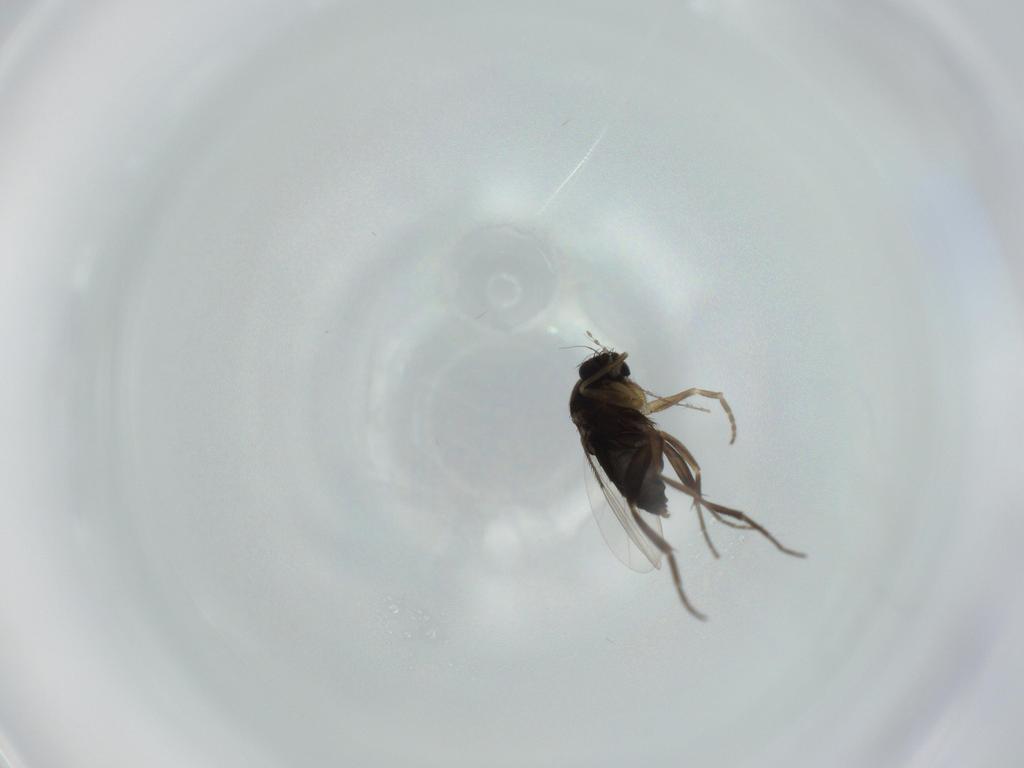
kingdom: Animalia
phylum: Arthropoda
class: Insecta
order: Diptera
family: Phoridae
